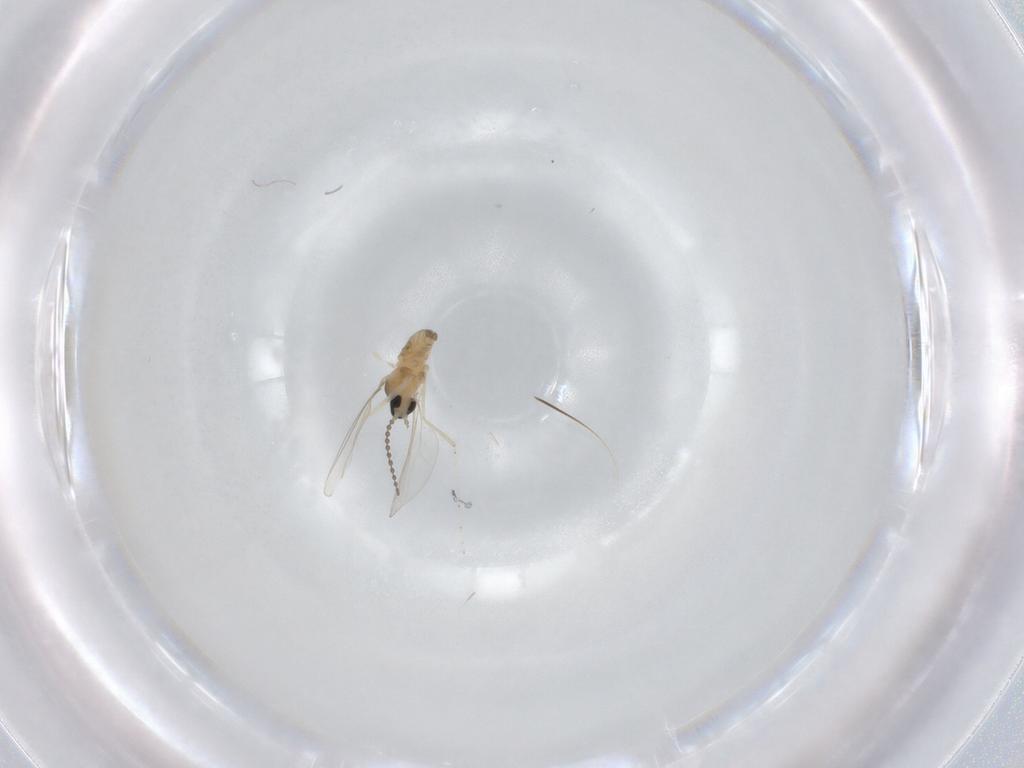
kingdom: Animalia
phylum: Arthropoda
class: Insecta
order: Diptera
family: Cecidomyiidae
